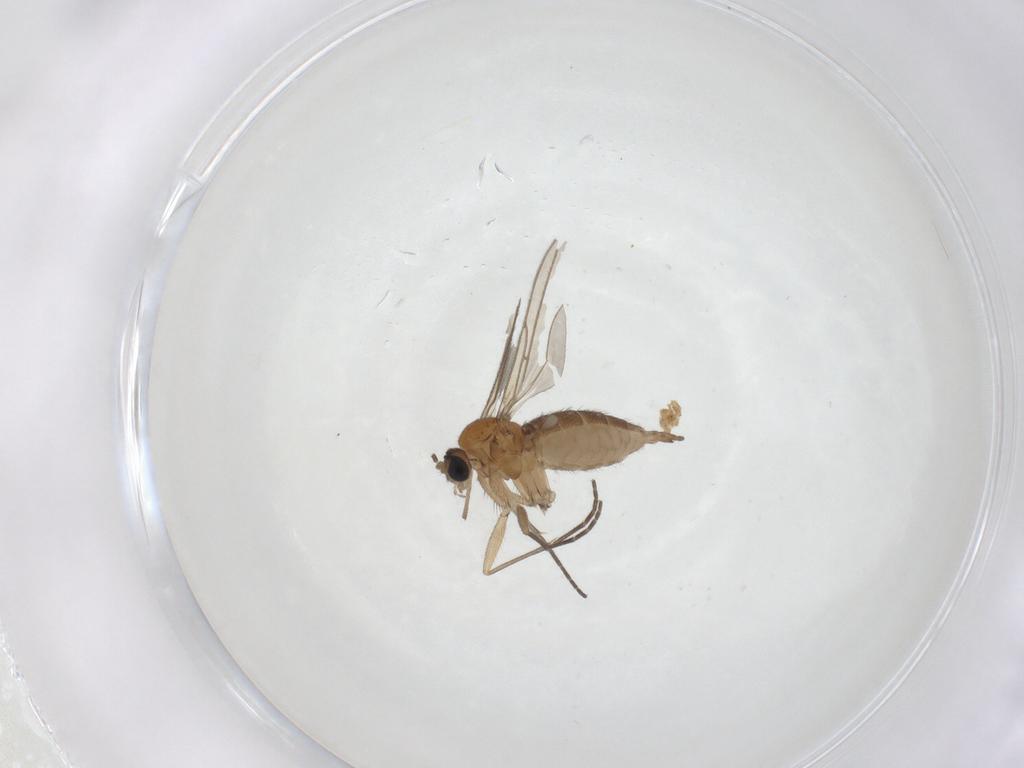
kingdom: Animalia
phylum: Arthropoda
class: Insecta
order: Diptera
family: Sciaridae
